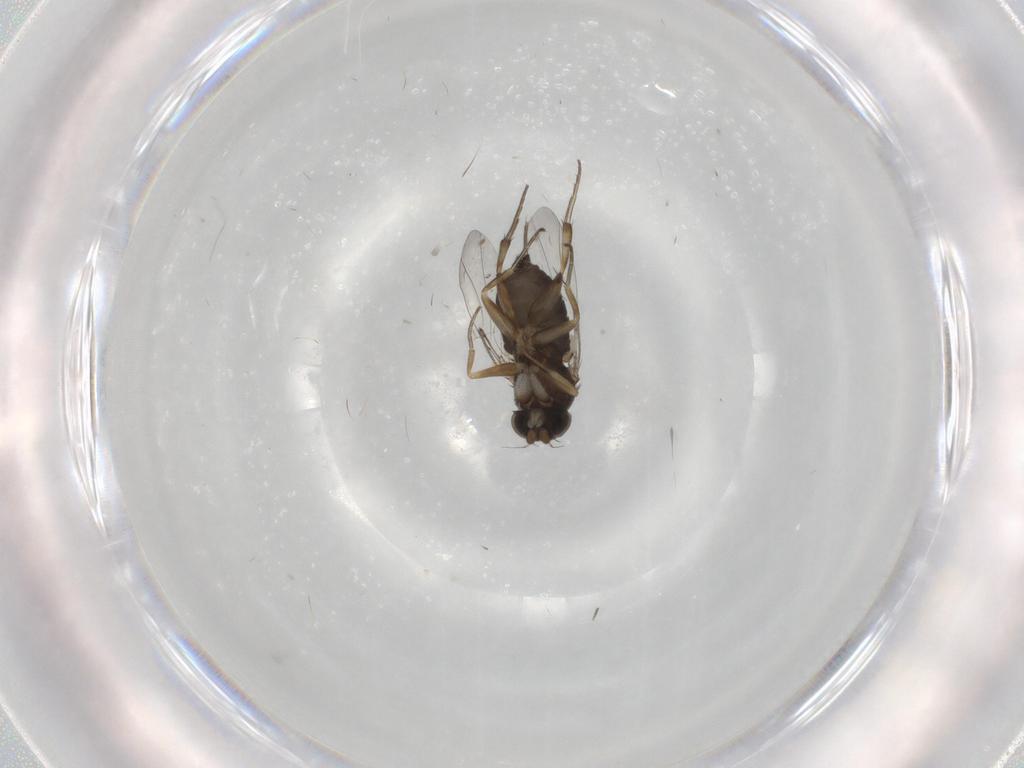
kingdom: Animalia
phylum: Arthropoda
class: Insecta
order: Diptera
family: Phoridae
